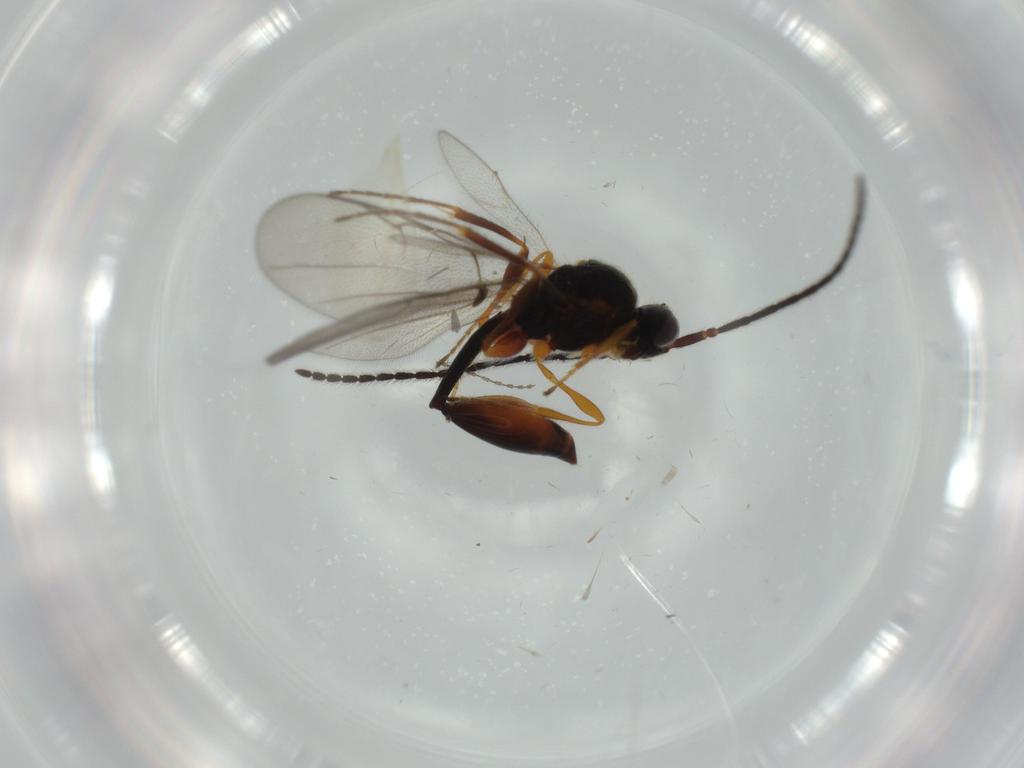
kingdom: Animalia
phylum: Arthropoda
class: Insecta
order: Hymenoptera
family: Diapriidae
